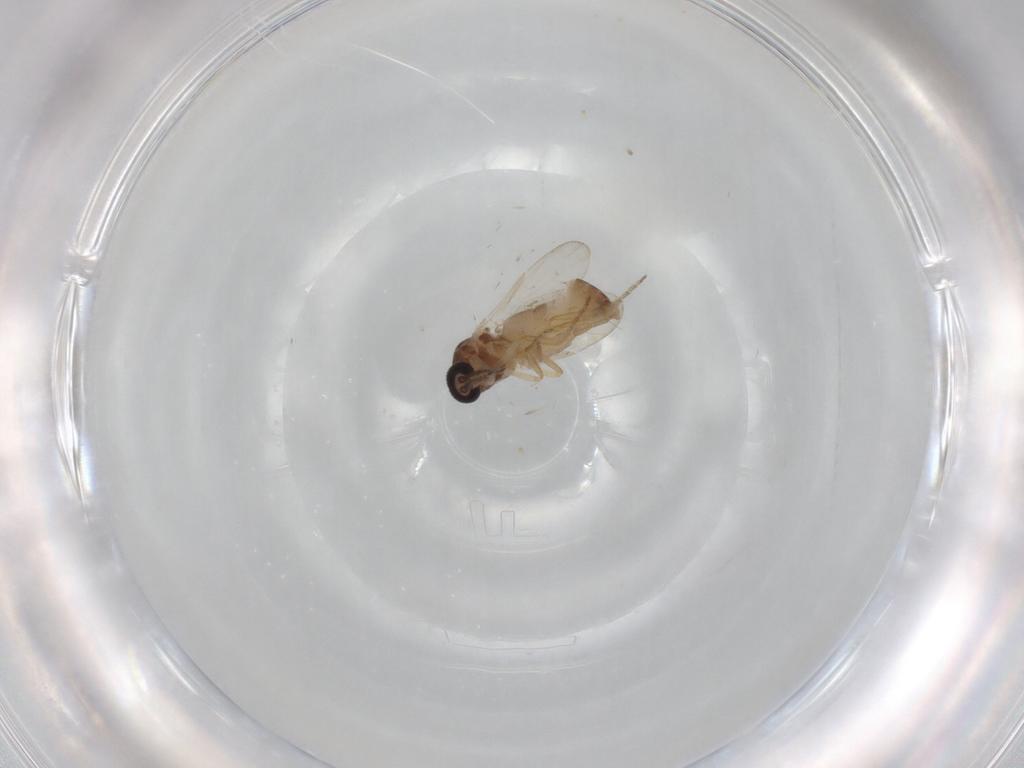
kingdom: Animalia
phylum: Arthropoda
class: Insecta
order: Diptera
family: Ceratopogonidae
